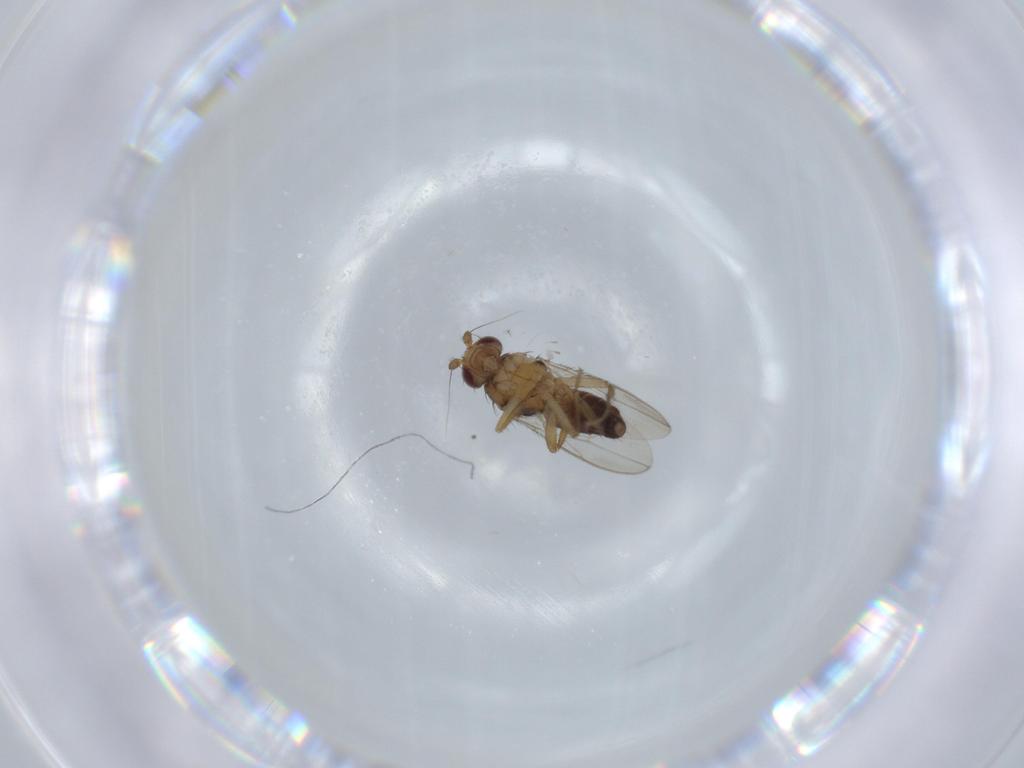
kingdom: Animalia
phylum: Arthropoda
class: Insecta
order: Diptera
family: Sphaeroceridae
